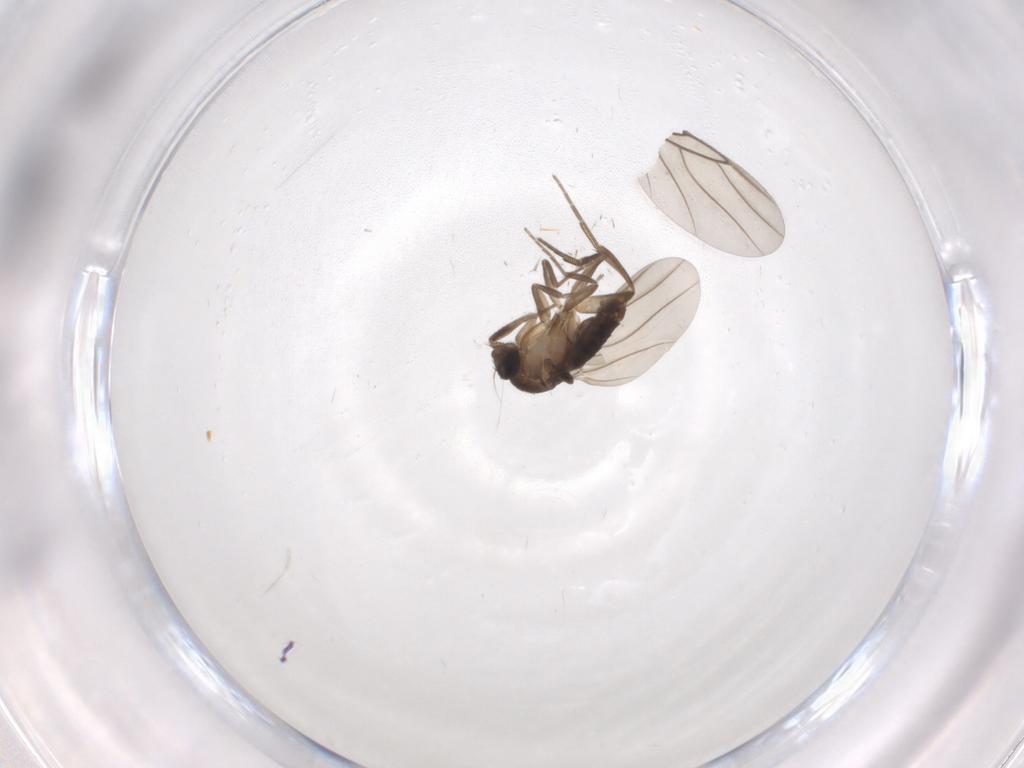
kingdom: Animalia
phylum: Arthropoda
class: Insecta
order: Diptera
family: Phoridae
